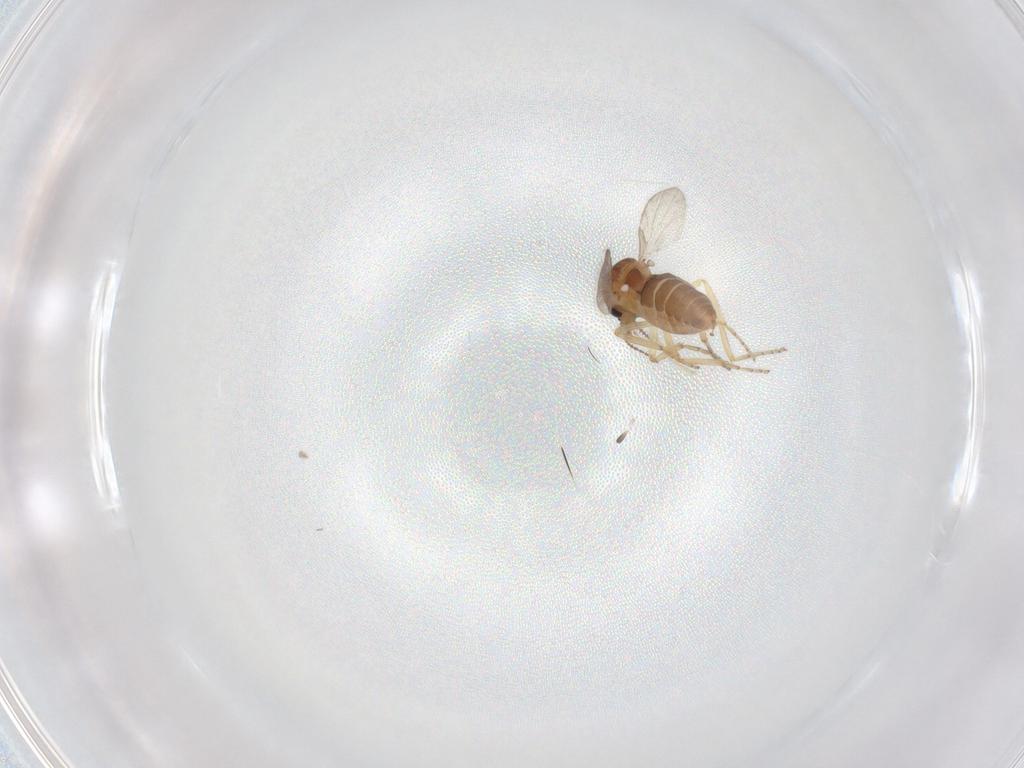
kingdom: Animalia
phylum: Arthropoda
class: Insecta
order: Diptera
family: Ceratopogonidae
